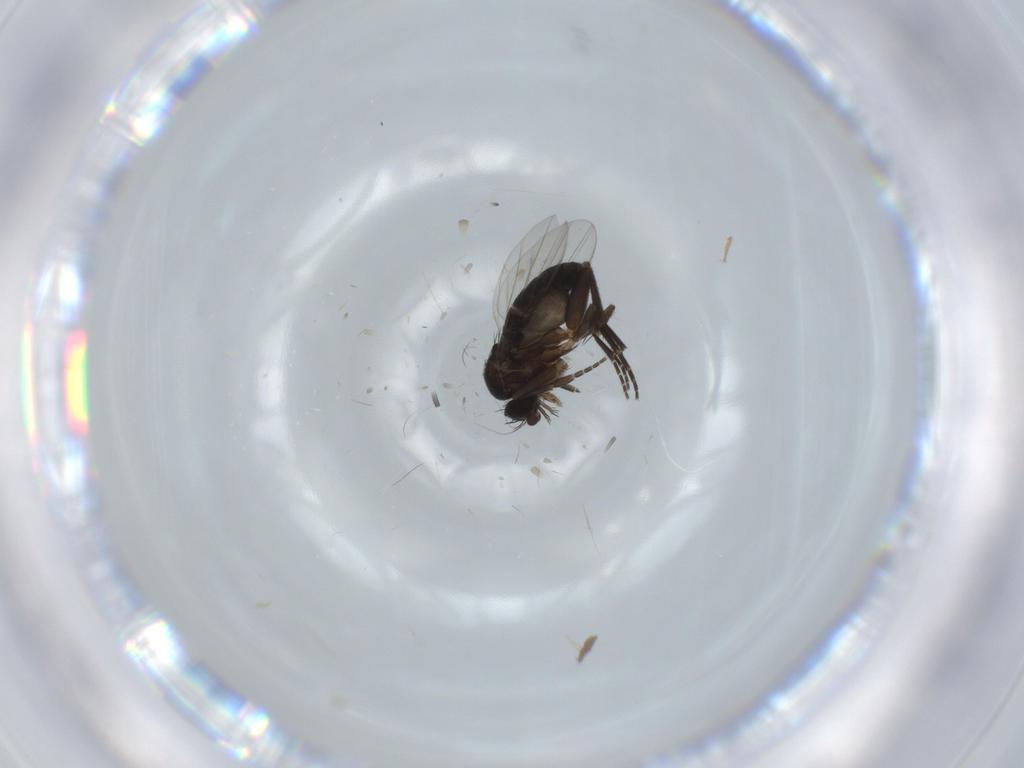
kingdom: Animalia
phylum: Arthropoda
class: Insecta
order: Diptera
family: Phoridae
